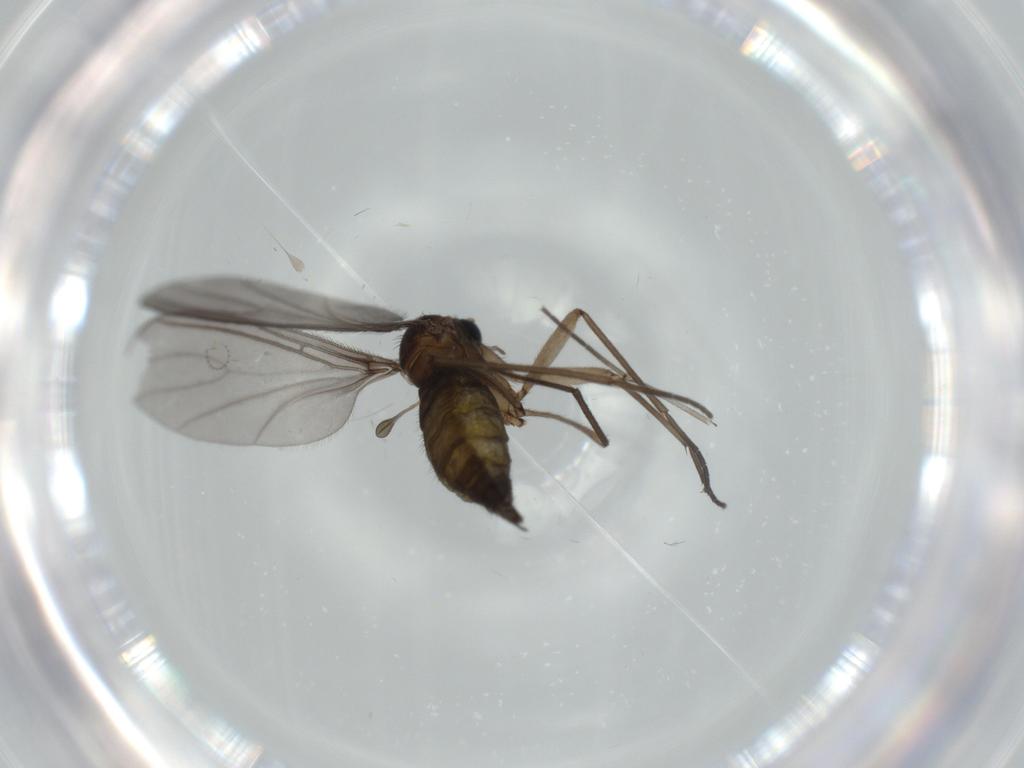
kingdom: Animalia
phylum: Arthropoda
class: Insecta
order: Diptera
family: Sciaridae
